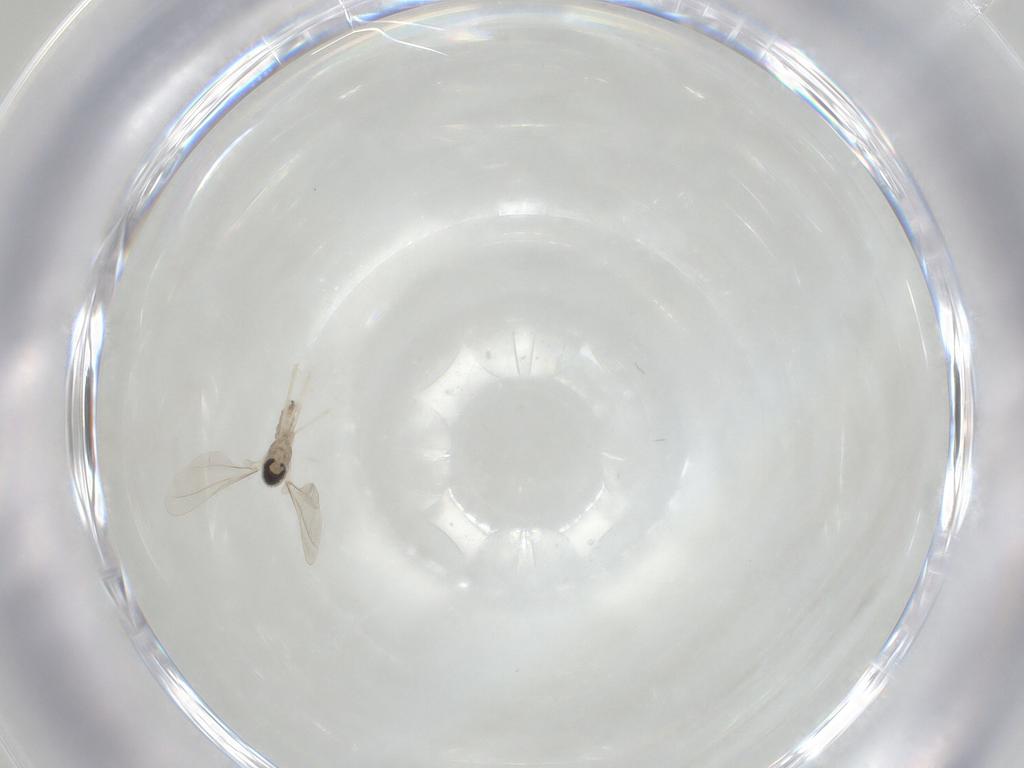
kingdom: Animalia
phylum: Arthropoda
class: Insecta
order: Diptera
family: Cecidomyiidae
